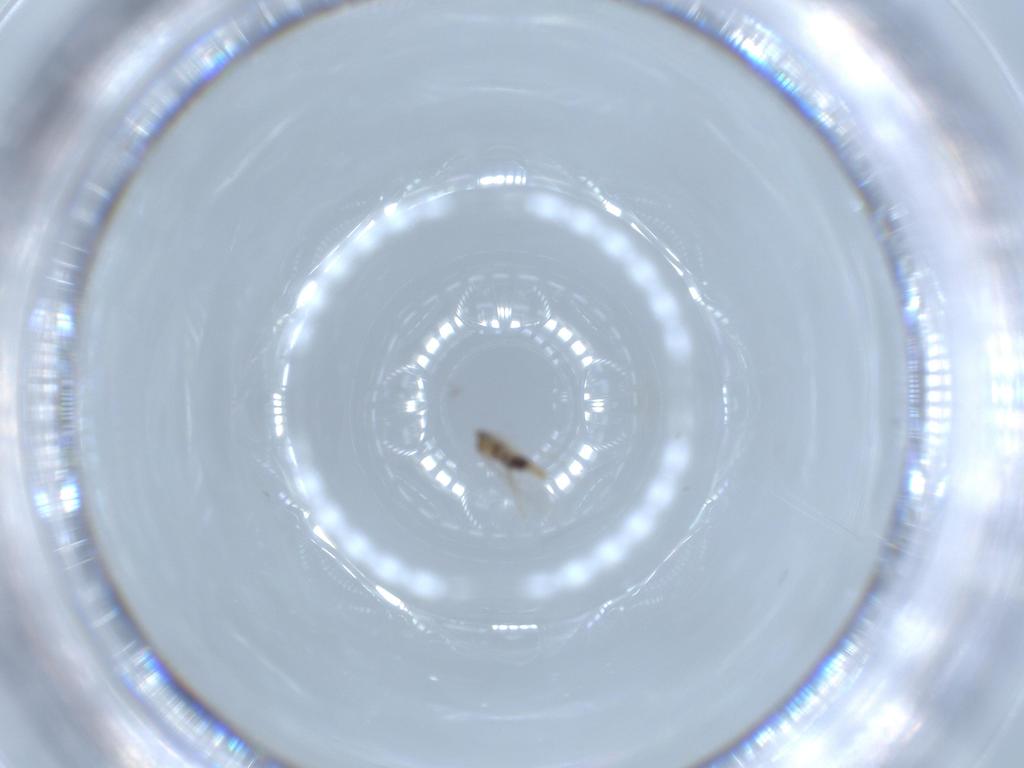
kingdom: Animalia
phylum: Arthropoda
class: Insecta
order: Diptera
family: Cecidomyiidae
